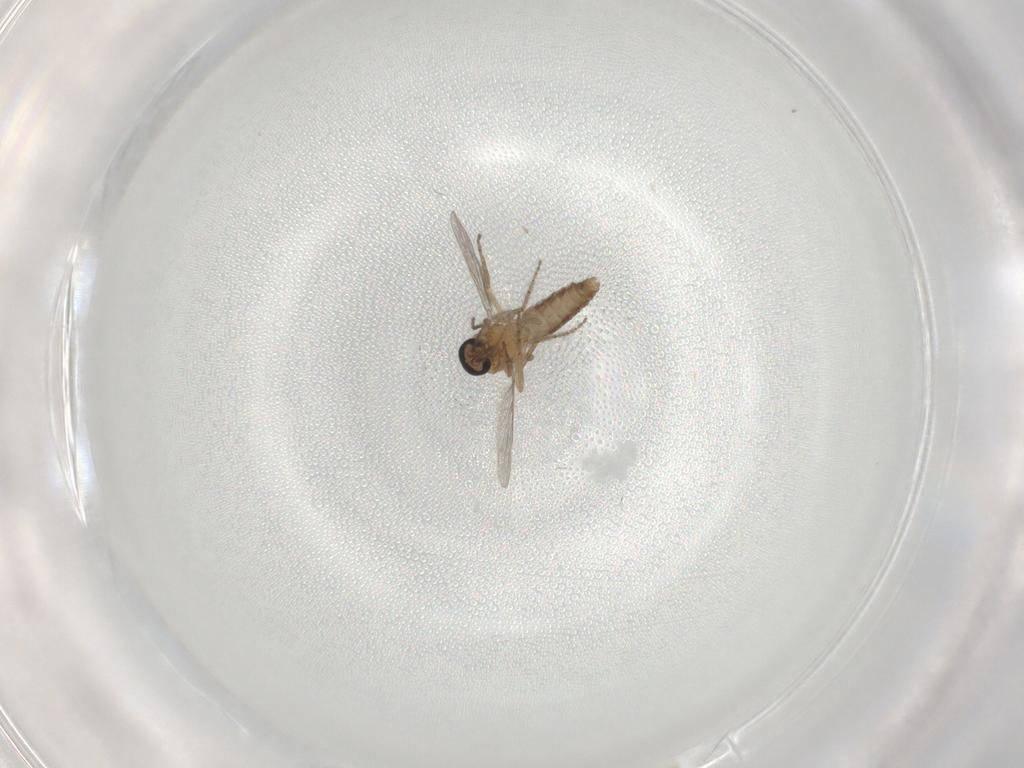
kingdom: Animalia
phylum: Arthropoda
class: Insecta
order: Diptera
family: Ceratopogonidae
